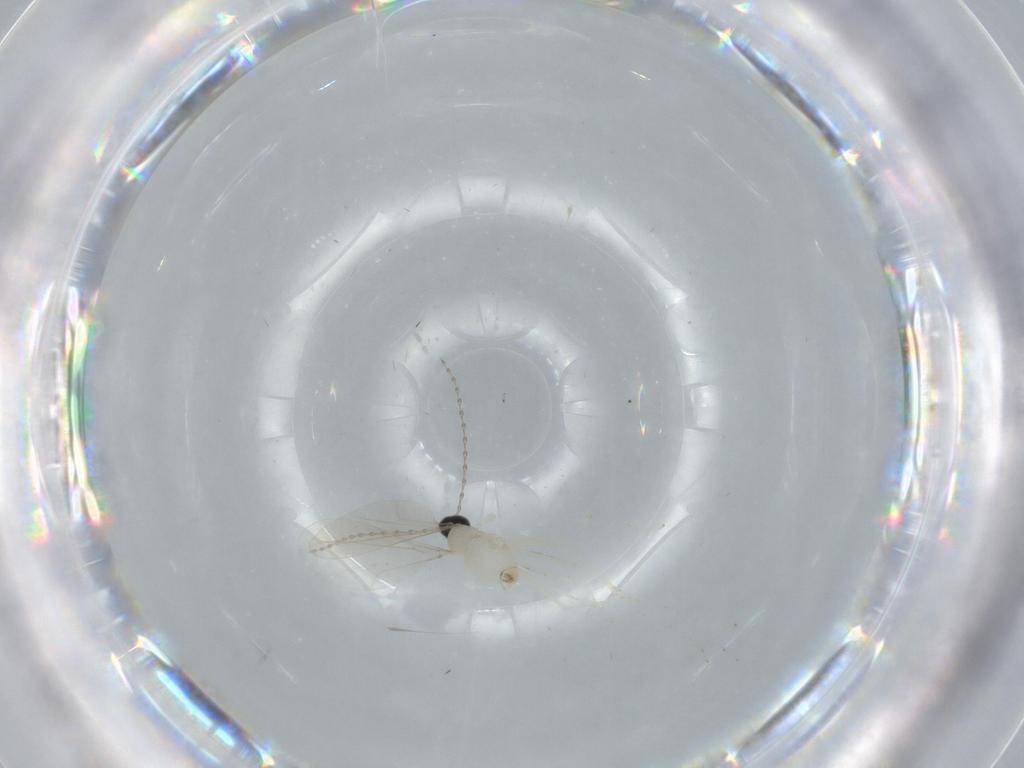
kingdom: Animalia
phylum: Arthropoda
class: Insecta
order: Diptera
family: Cecidomyiidae
